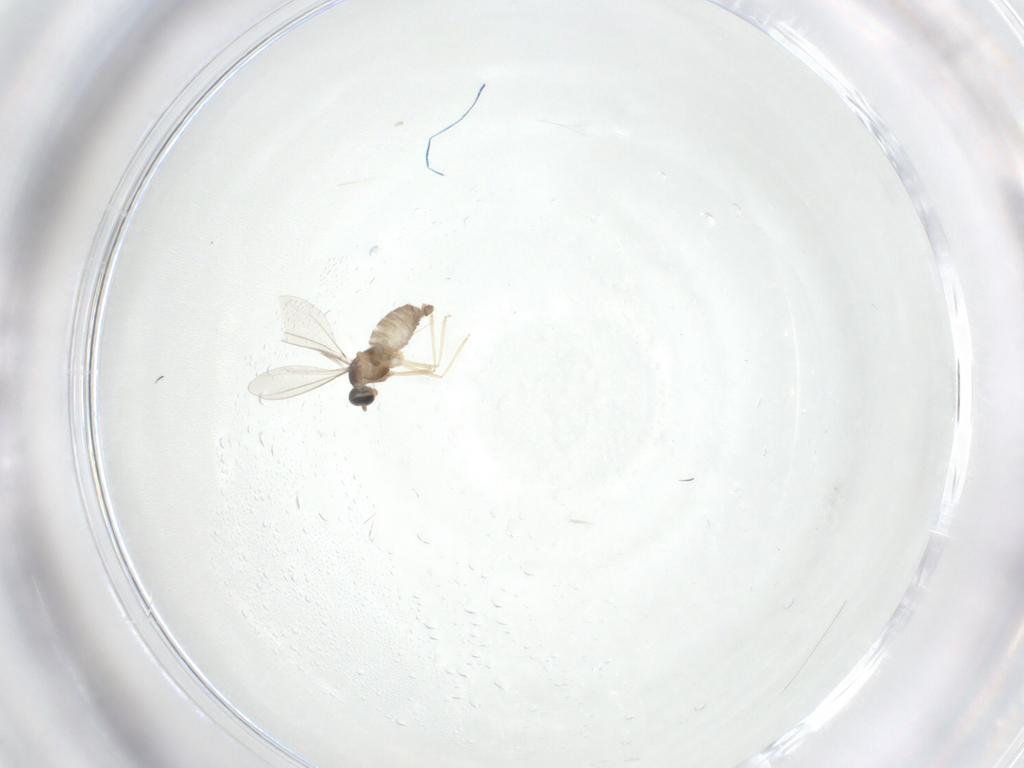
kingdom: Animalia
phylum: Arthropoda
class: Insecta
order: Diptera
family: Cecidomyiidae
